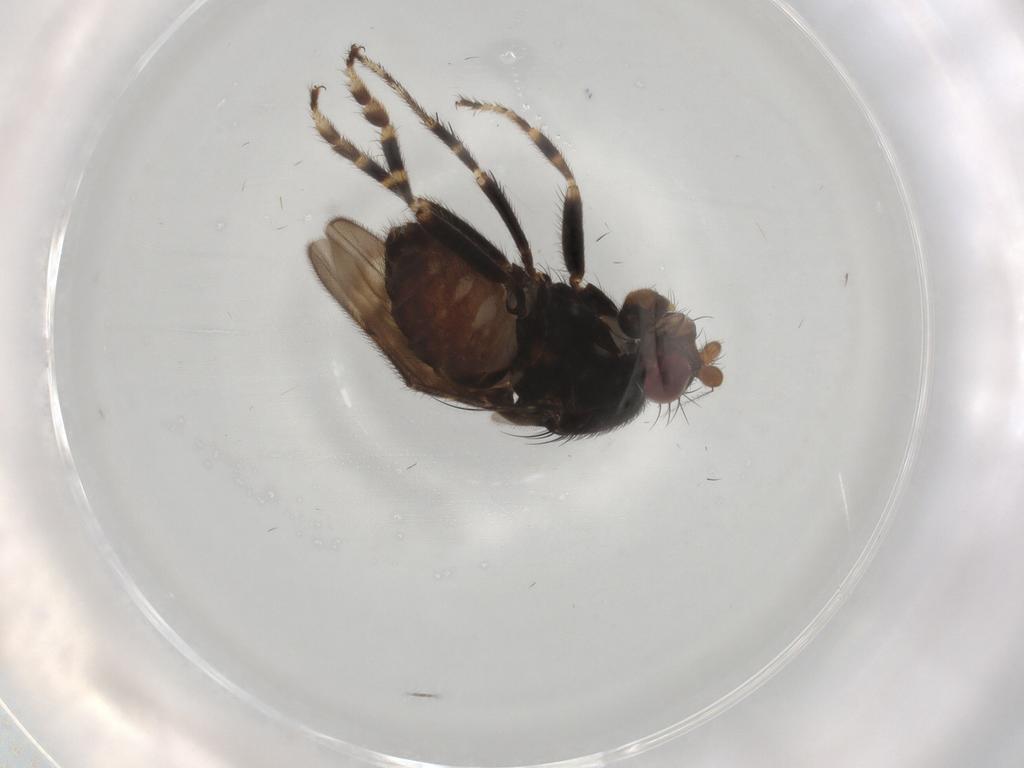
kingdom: Animalia
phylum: Arthropoda
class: Insecta
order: Diptera
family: Sphaeroceridae
